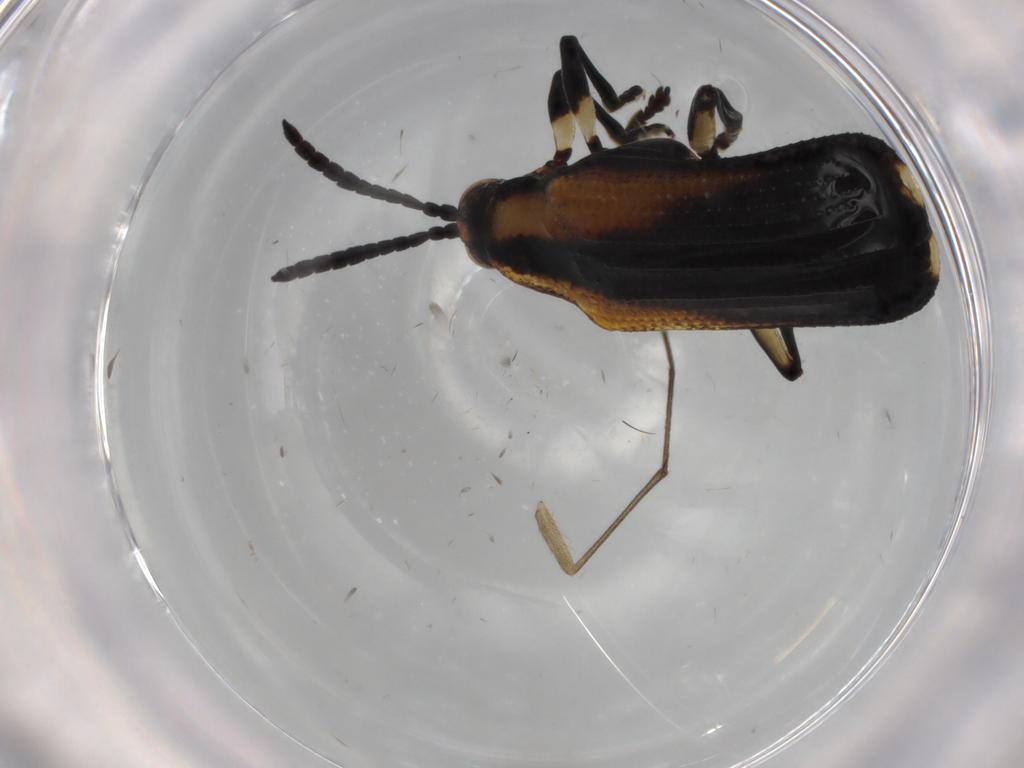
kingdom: Animalia
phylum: Arthropoda
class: Insecta
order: Coleoptera
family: Chrysomelidae
